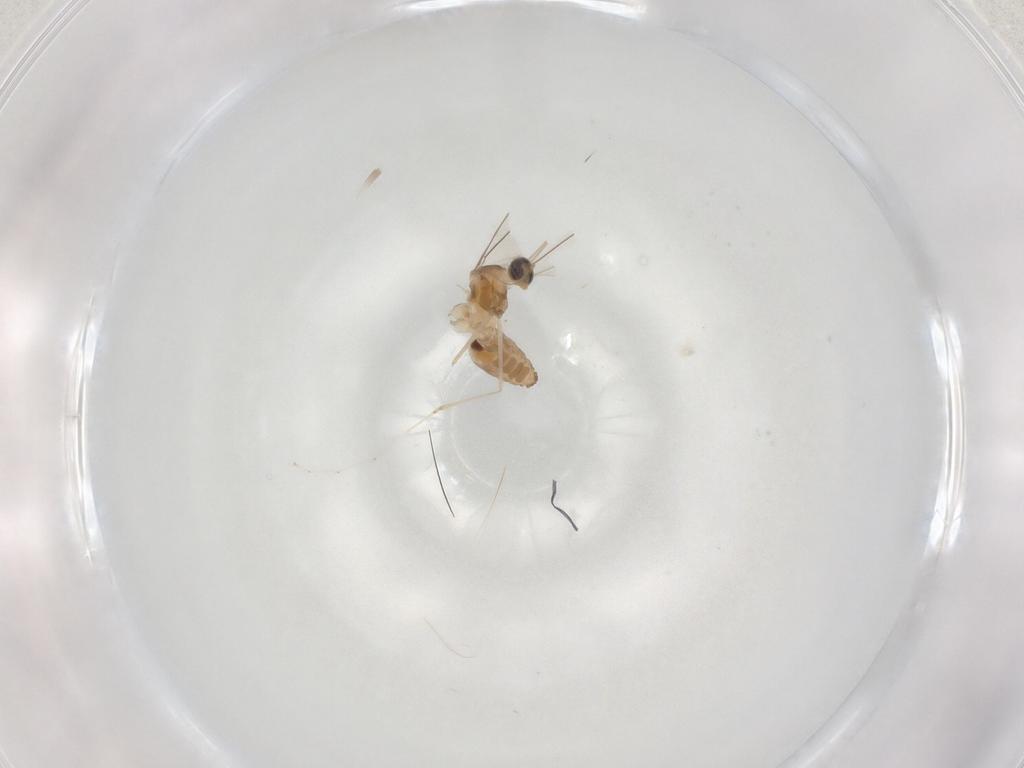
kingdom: Animalia
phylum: Arthropoda
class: Insecta
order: Diptera
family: Cecidomyiidae
